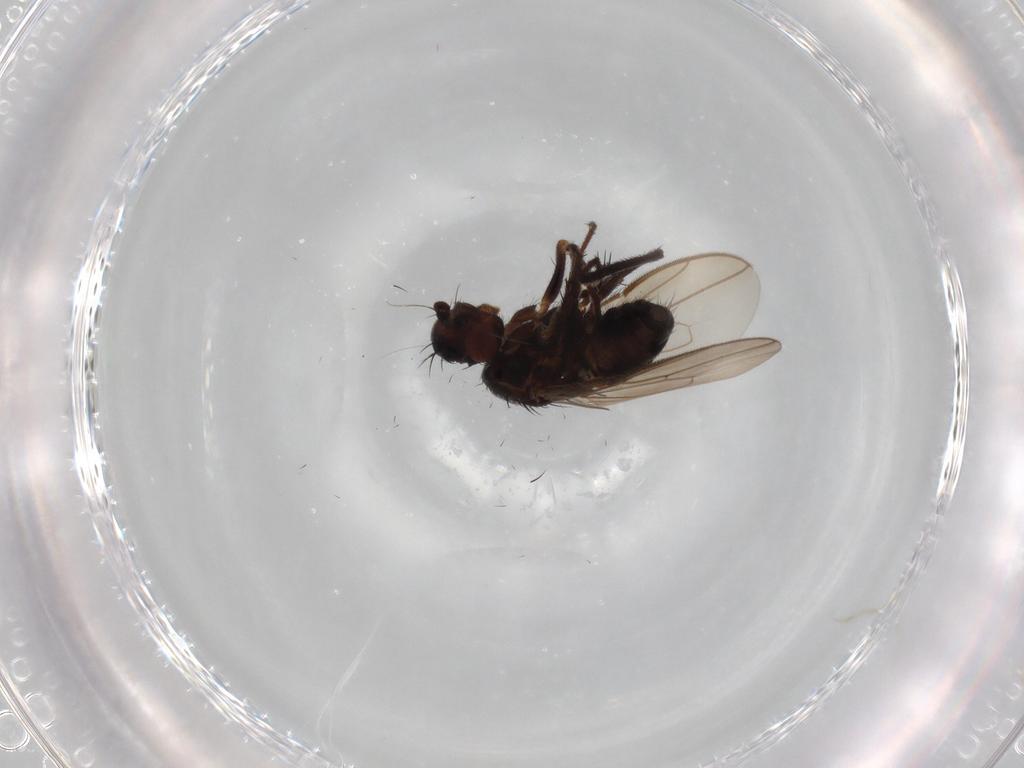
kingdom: Animalia
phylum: Arthropoda
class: Insecta
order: Diptera
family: Sphaeroceridae
